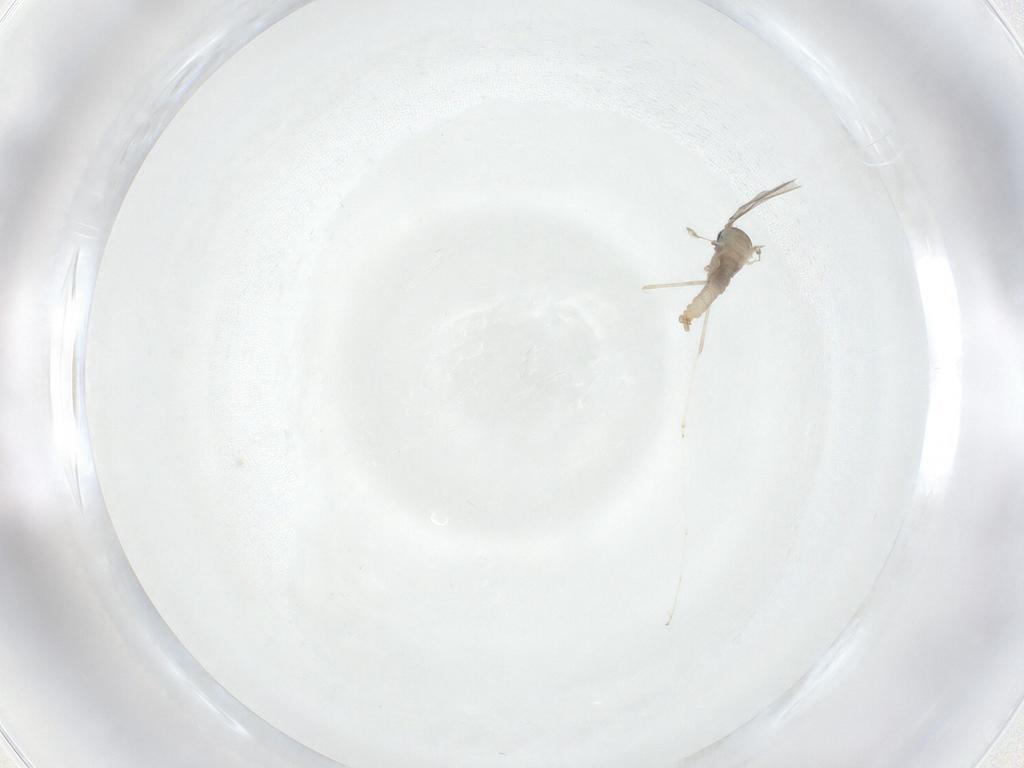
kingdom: Animalia
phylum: Arthropoda
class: Insecta
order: Diptera
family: Cecidomyiidae
